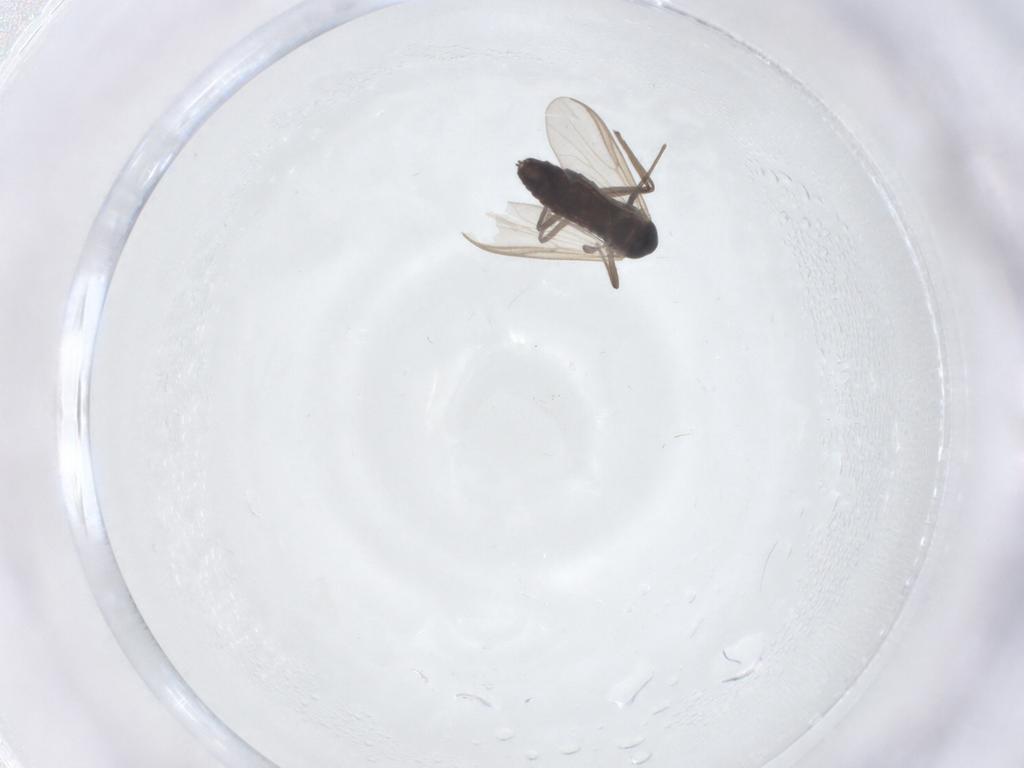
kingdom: Animalia
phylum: Arthropoda
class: Insecta
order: Diptera
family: Chironomidae
